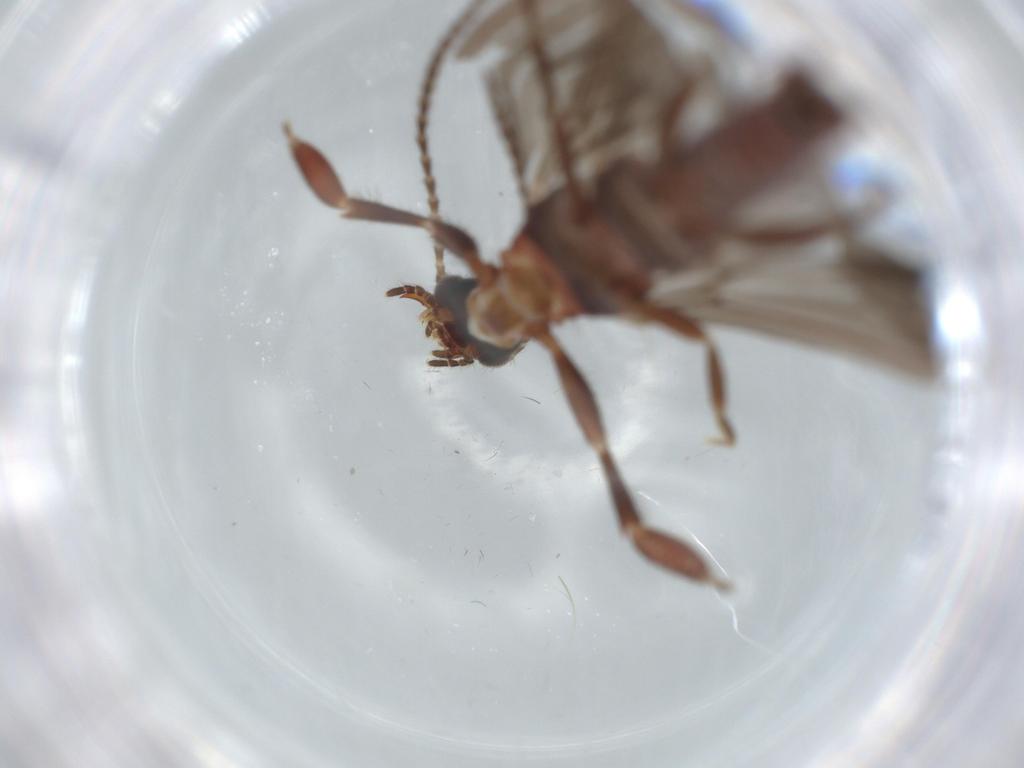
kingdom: Animalia
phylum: Arthropoda
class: Insecta
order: Embioptera
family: Anisembiidae
